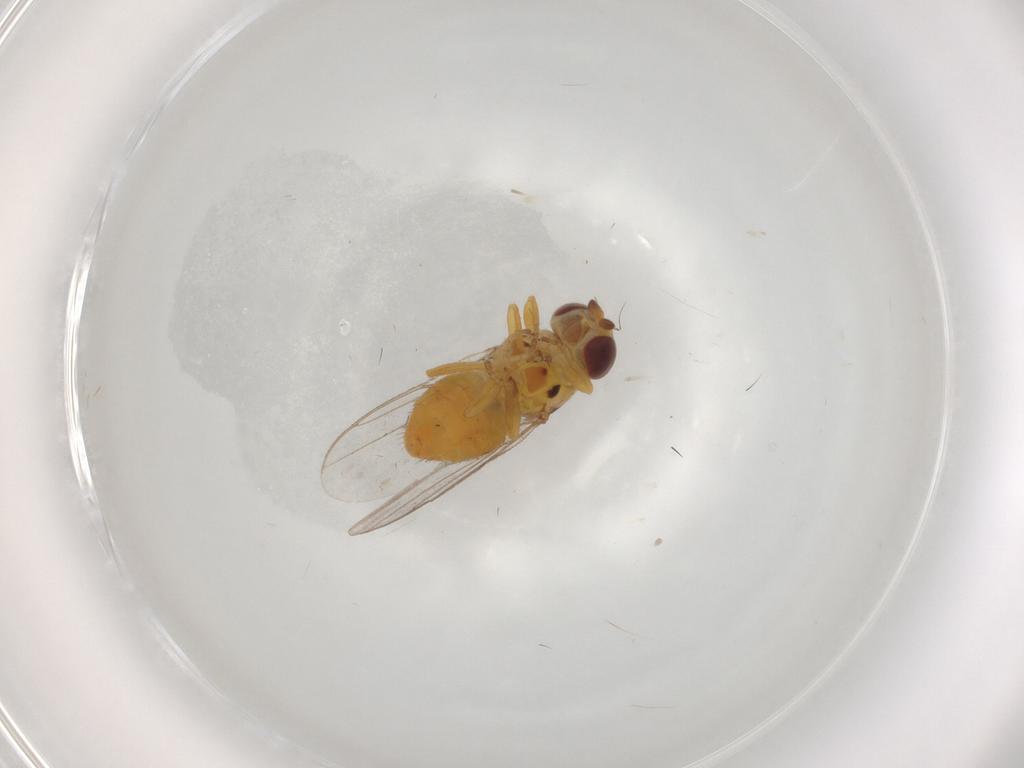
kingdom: Animalia
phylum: Arthropoda
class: Insecta
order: Diptera
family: Chloropidae
